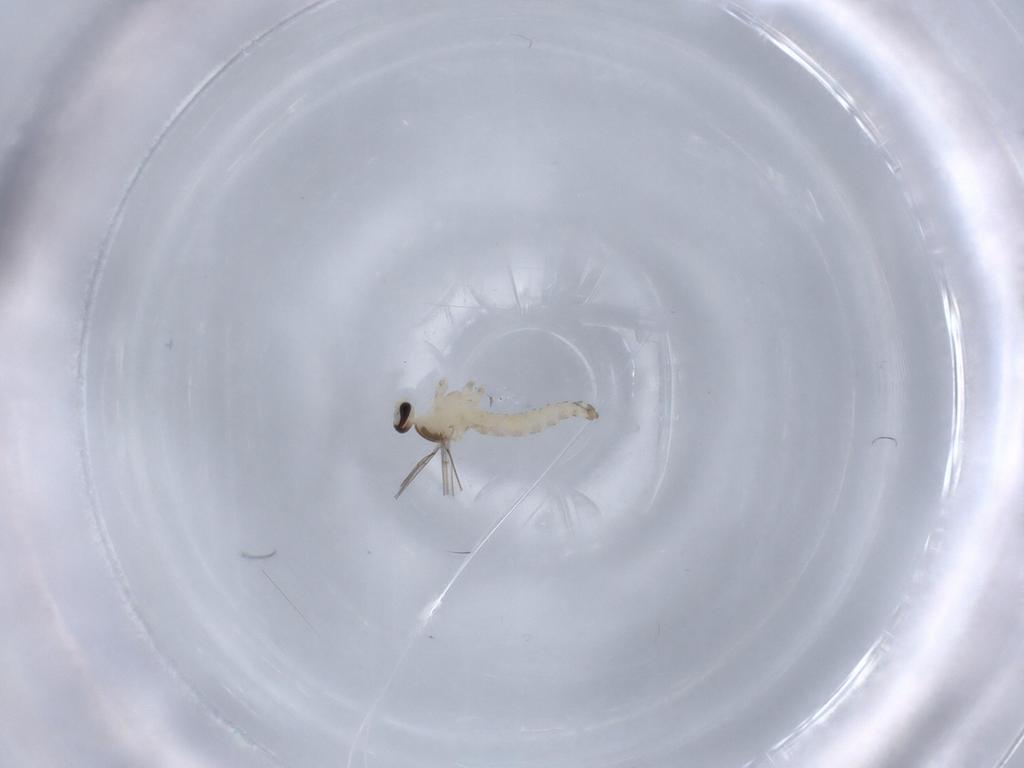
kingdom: Animalia
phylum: Arthropoda
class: Insecta
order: Diptera
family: Cecidomyiidae
